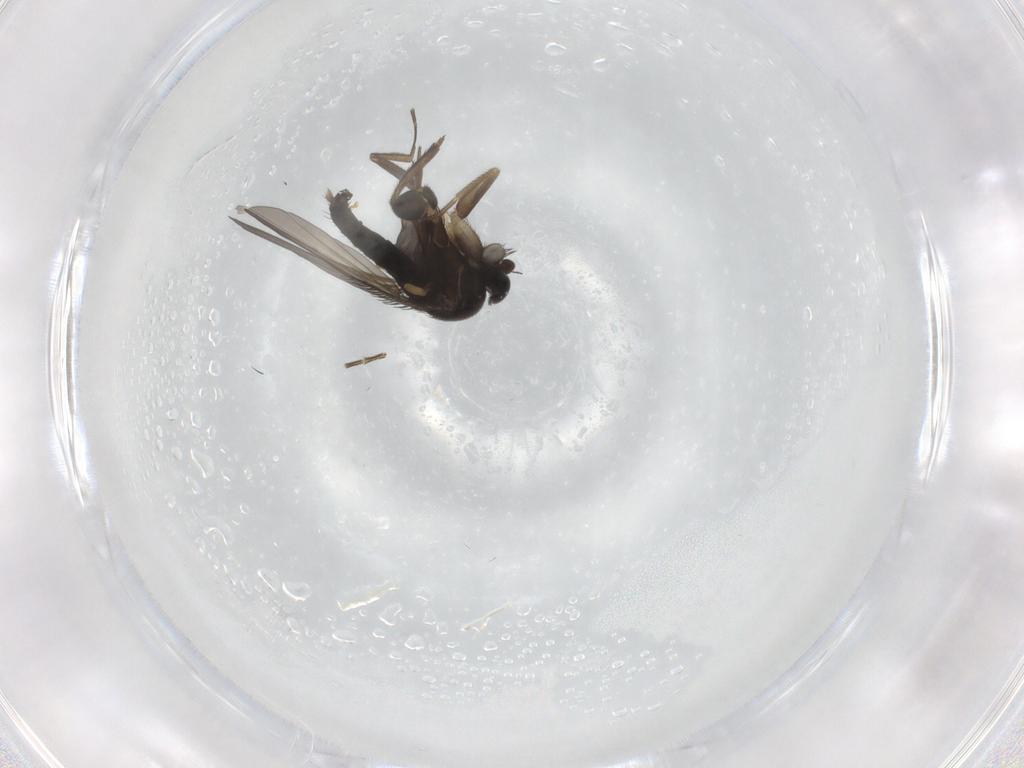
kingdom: Animalia
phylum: Arthropoda
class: Insecta
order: Diptera
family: Phoridae
